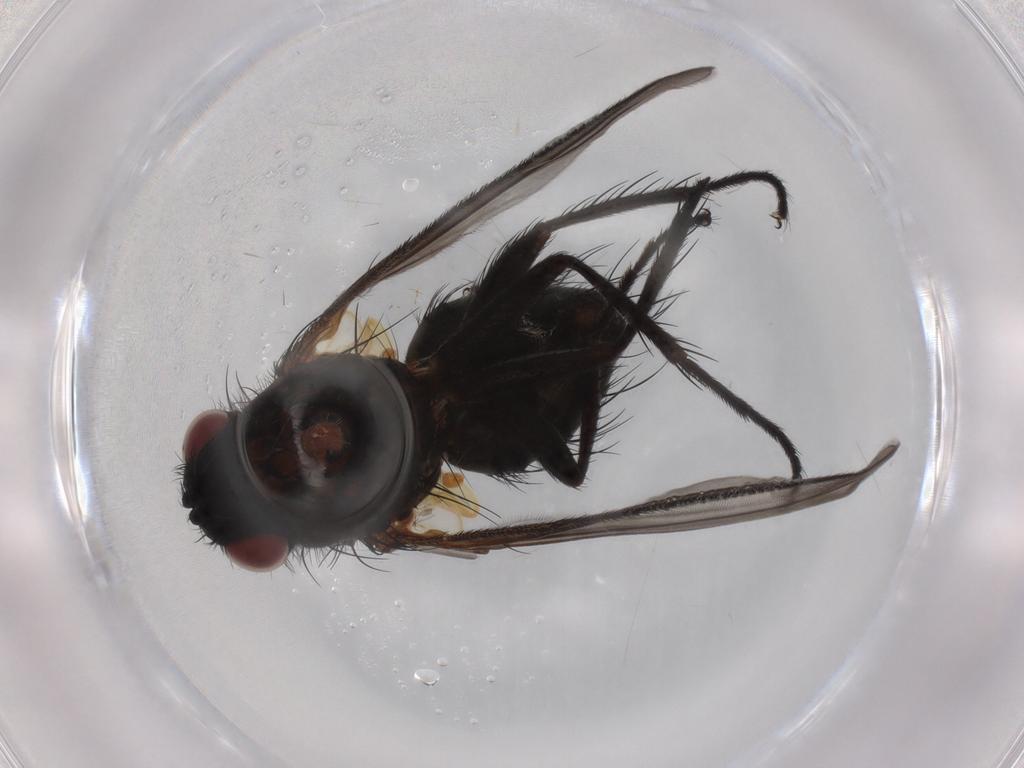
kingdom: Animalia
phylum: Arthropoda
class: Insecta
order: Diptera
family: Tachinidae
